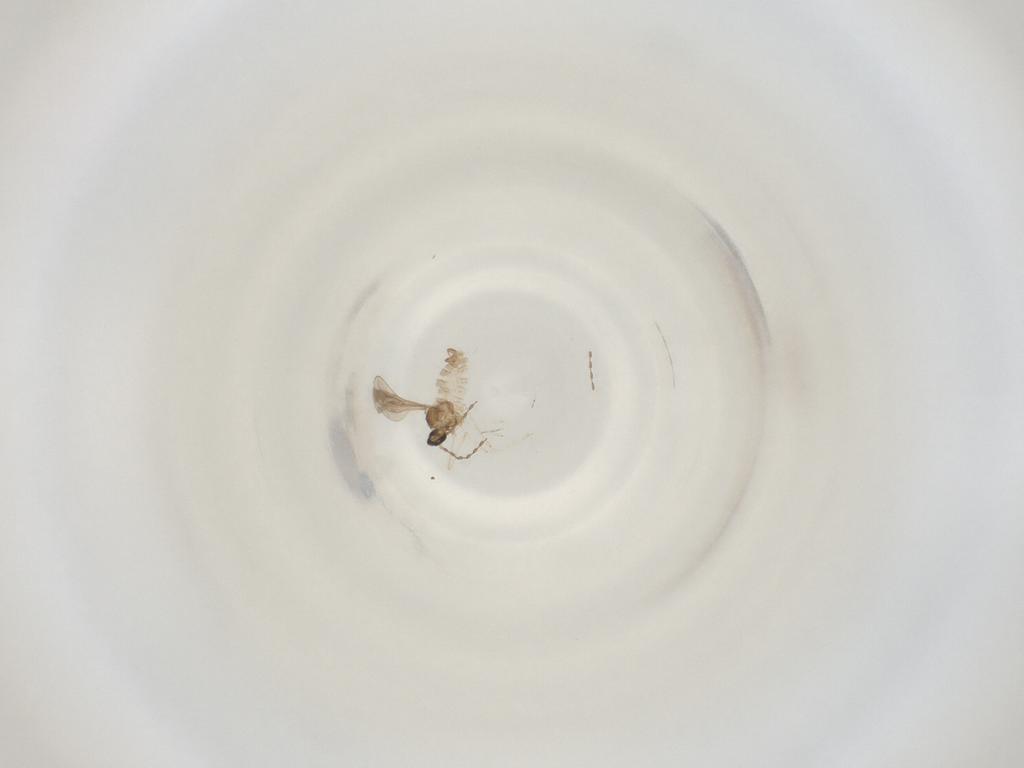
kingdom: Animalia
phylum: Arthropoda
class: Insecta
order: Diptera
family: Cecidomyiidae
